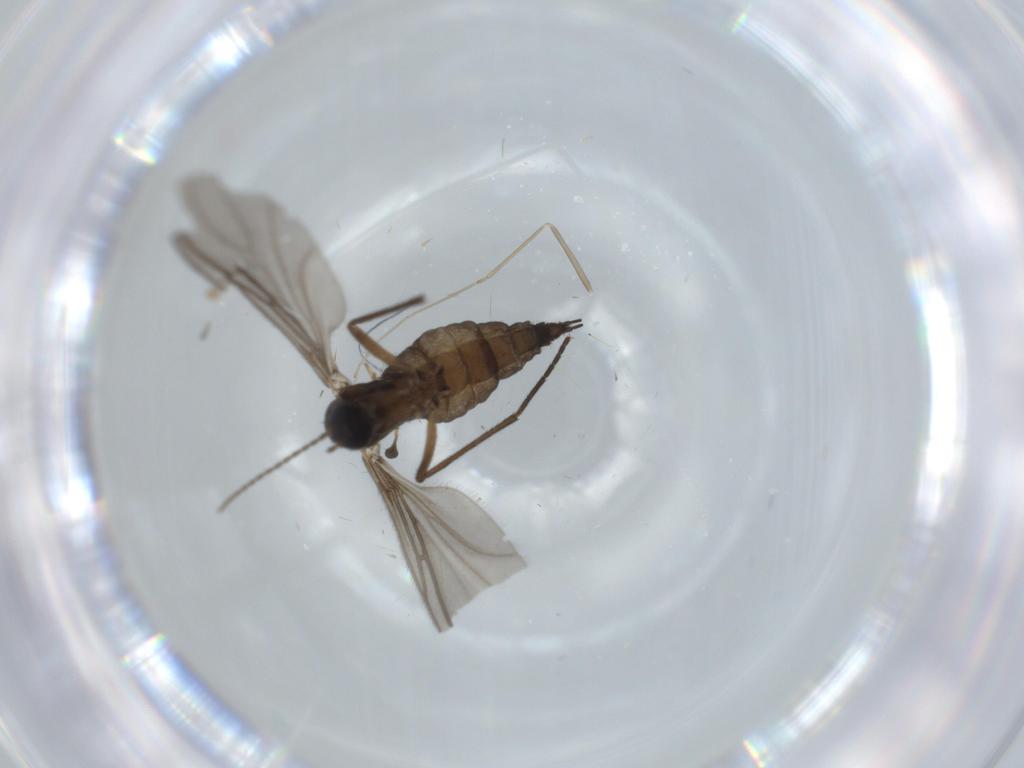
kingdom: Animalia
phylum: Arthropoda
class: Insecta
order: Diptera
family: Sciaridae
